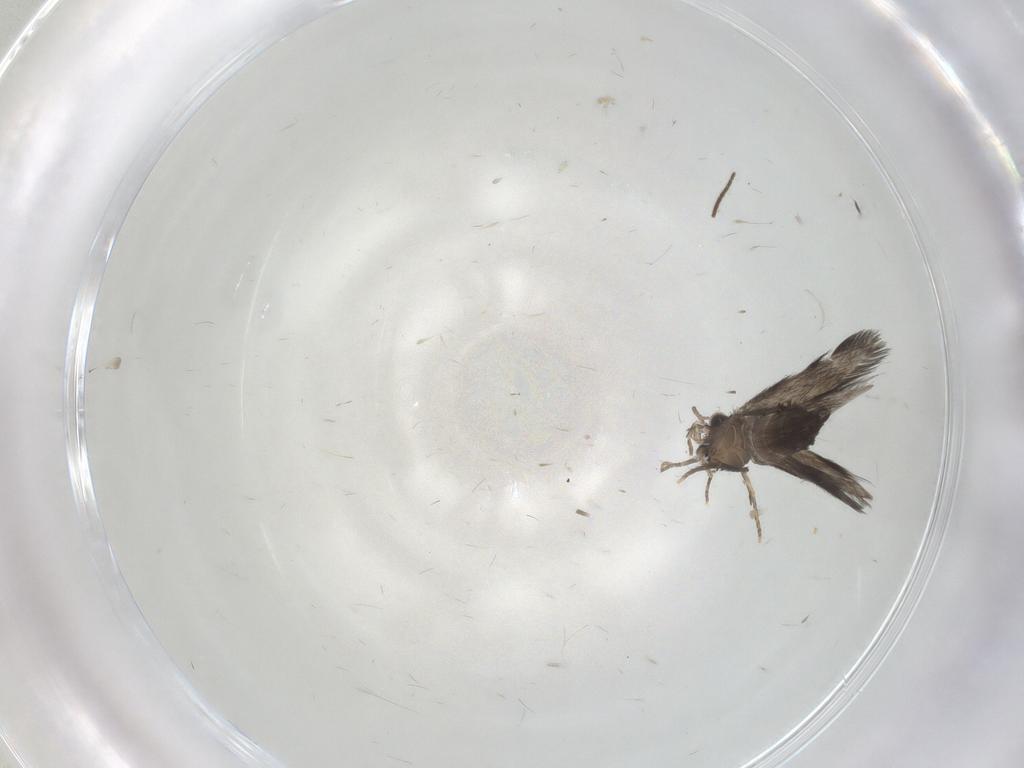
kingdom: Animalia
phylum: Arthropoda
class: Insecta
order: Trichoptera
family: Hydroptilidae
